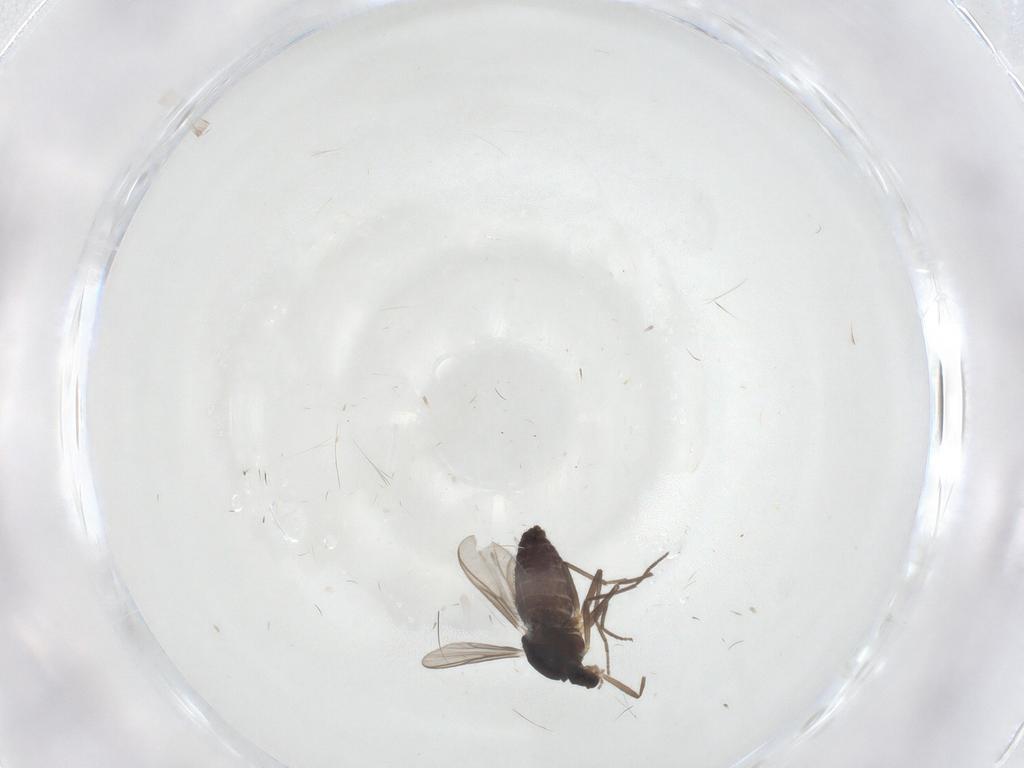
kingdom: Animalia
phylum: Arthropoda
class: Insecta
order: Diptera
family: Chironomidae
